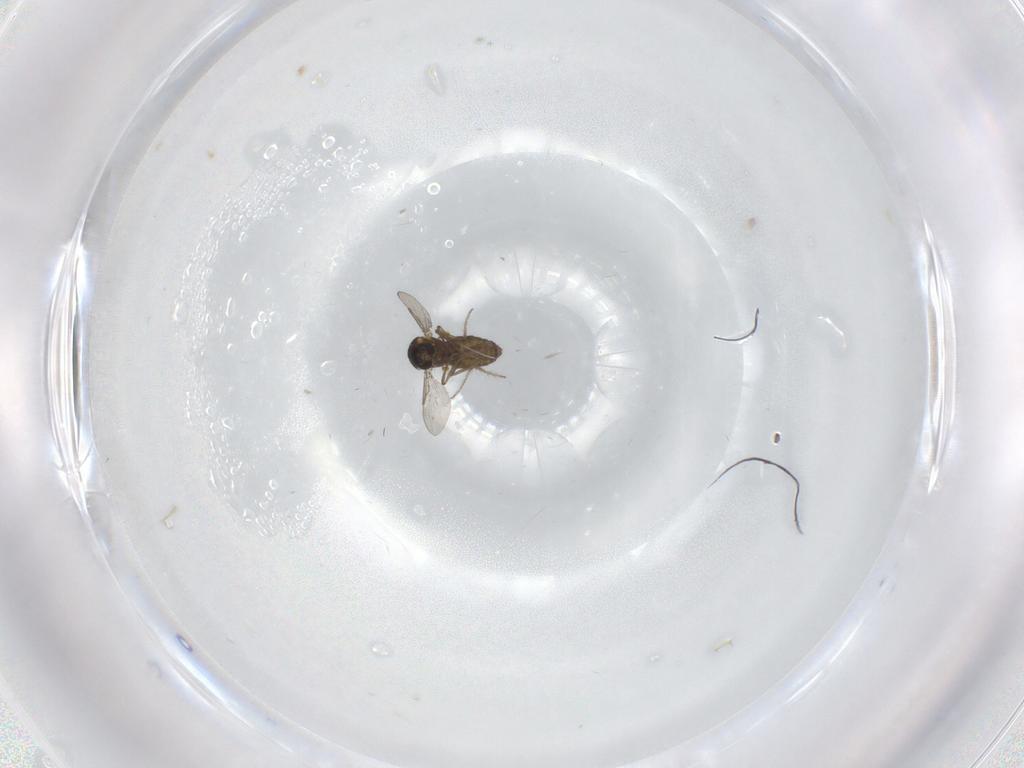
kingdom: Animalia
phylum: Arthropoda
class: Insecta
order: Diptera
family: Ceratopogonidae
